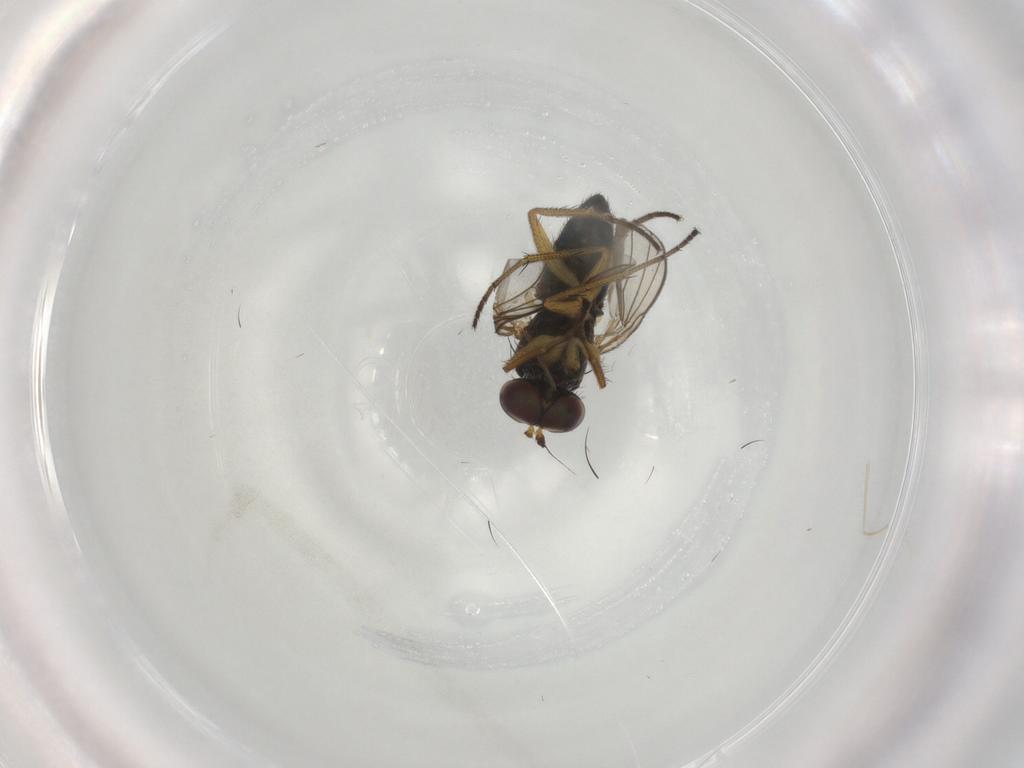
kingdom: Animalia
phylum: Arthropoda
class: Insecta
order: Diptera
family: Dolichopodidae
